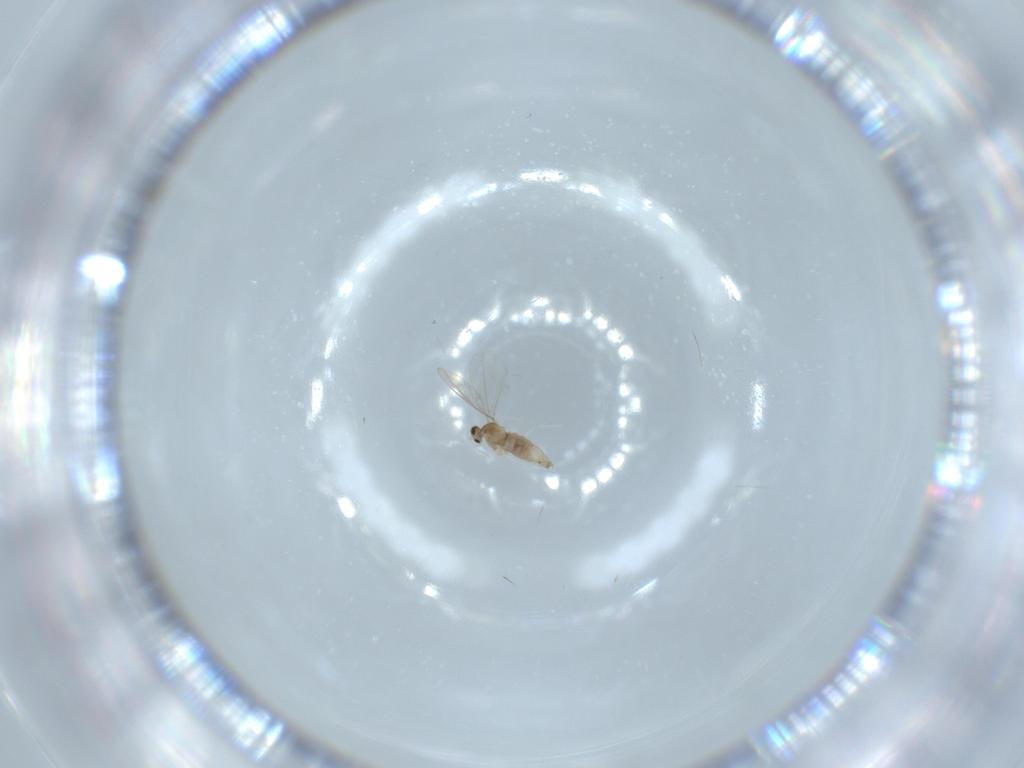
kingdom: Animalia
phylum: Arthropoda
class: Insecta
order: Diptera
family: Cecidomyiidae
